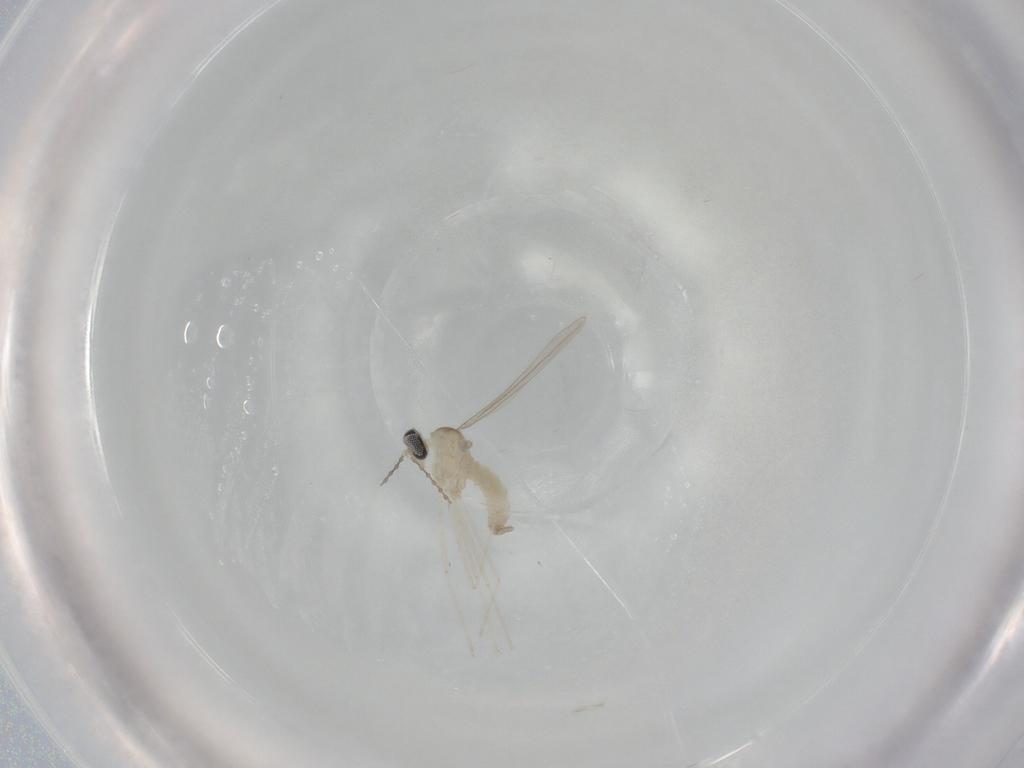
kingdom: Animalia
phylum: Arthropoda
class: Insecta
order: Diptera
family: Cecidomyiidae
